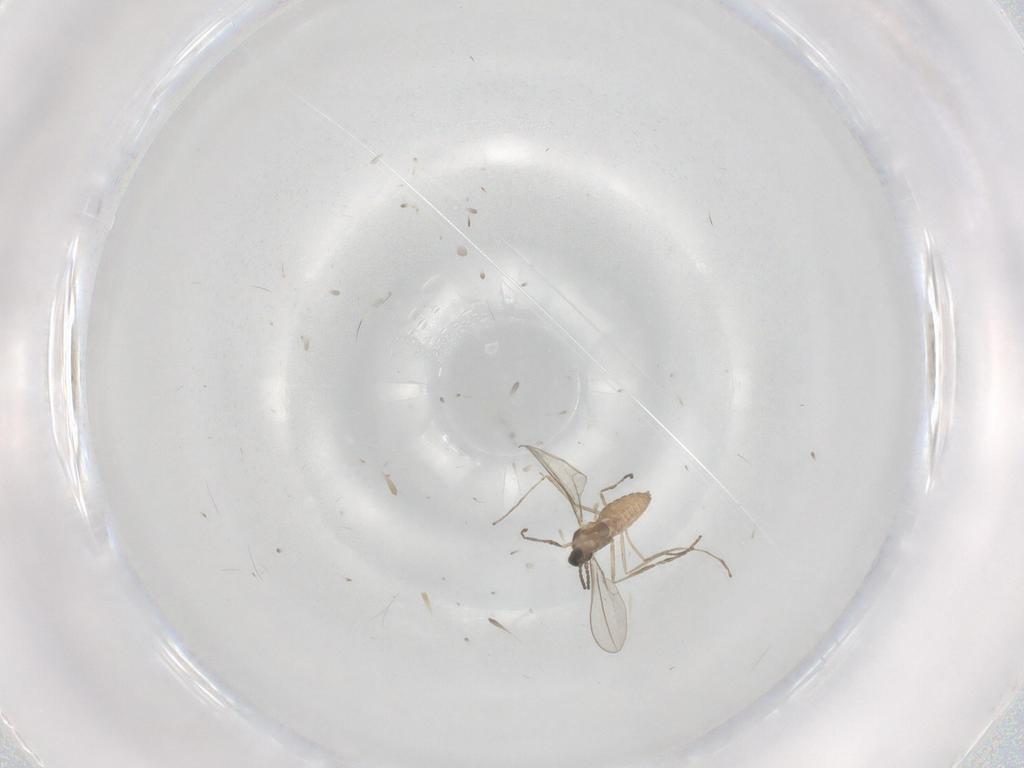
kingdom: Animalia
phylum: Arthropoda
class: Insecta
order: Diptera
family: Cecidomyiidae
